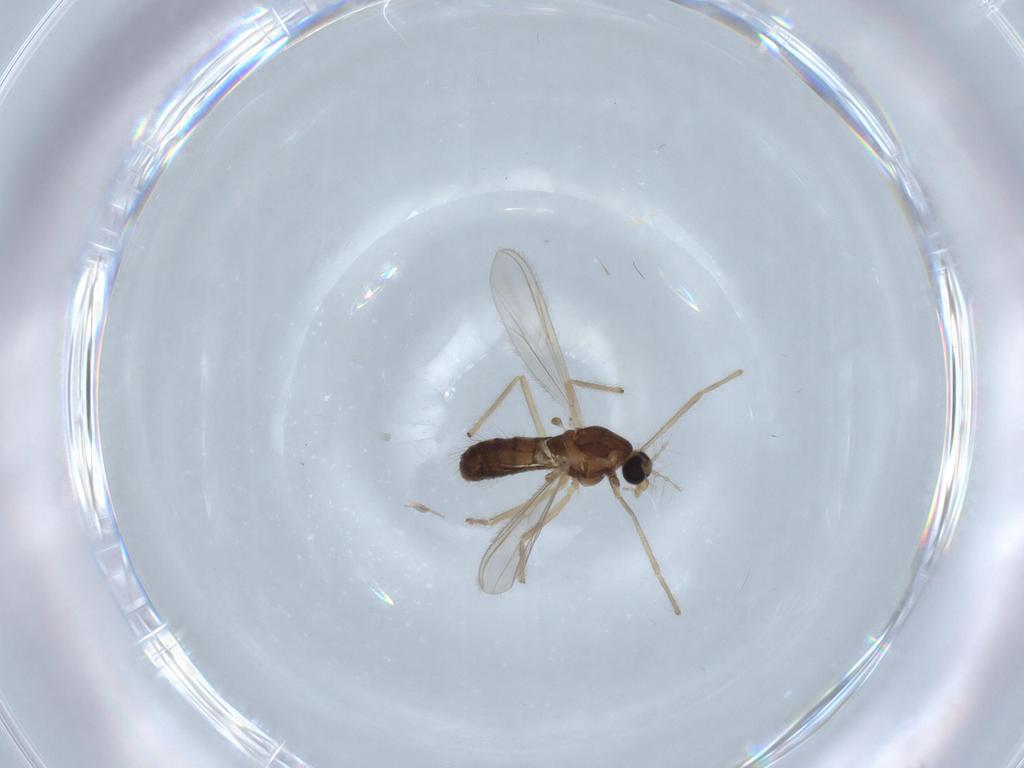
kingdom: Animalia
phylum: Arthropoda
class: Insecta
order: Diptera
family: Chironomidae
